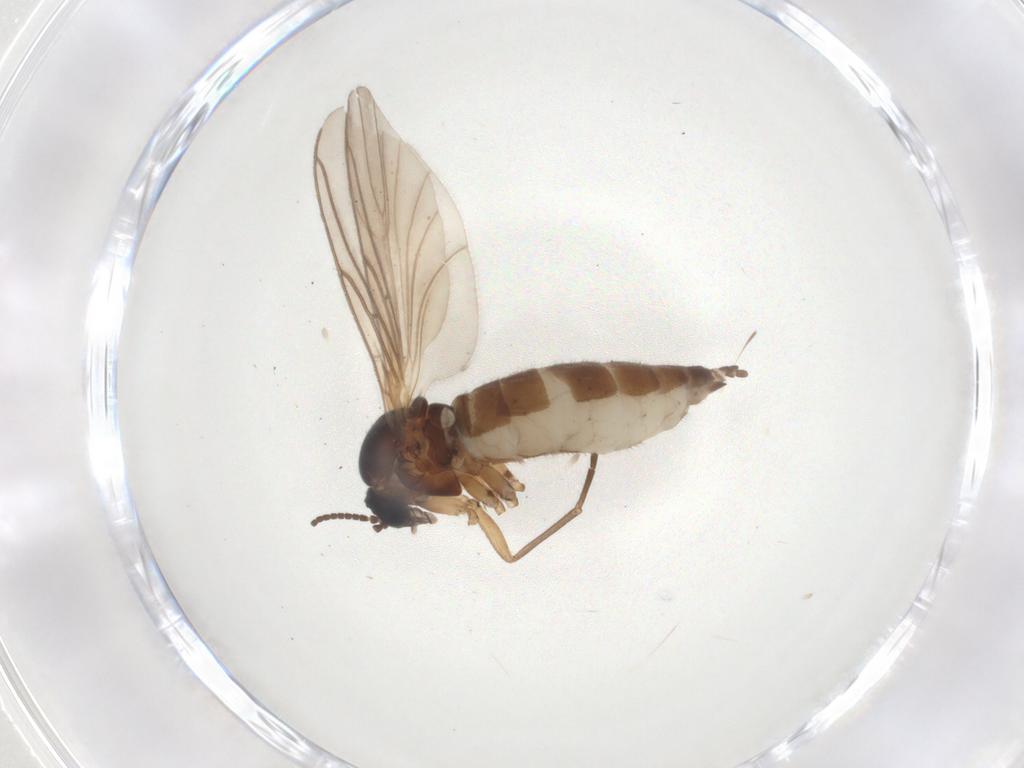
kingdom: Animalia
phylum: Arthropoda
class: Insecta
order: Diptera
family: Sciaridae
